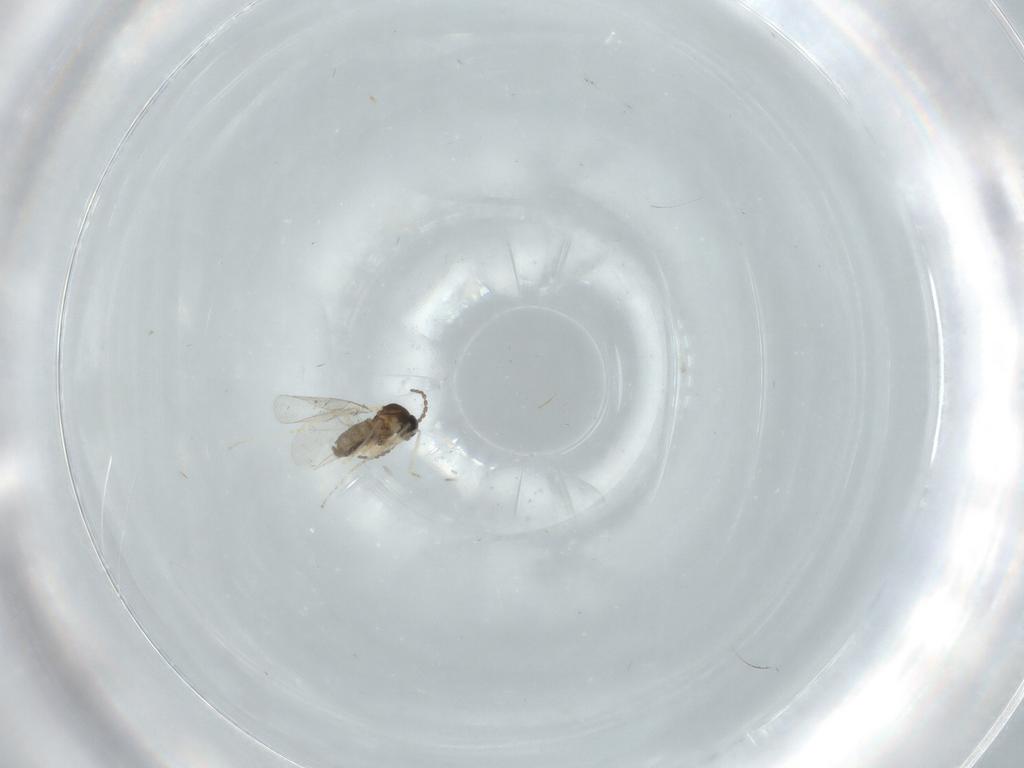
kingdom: Animalia
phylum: Arthropoda
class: Insecta
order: Diptera
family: Cecidomyiidae
